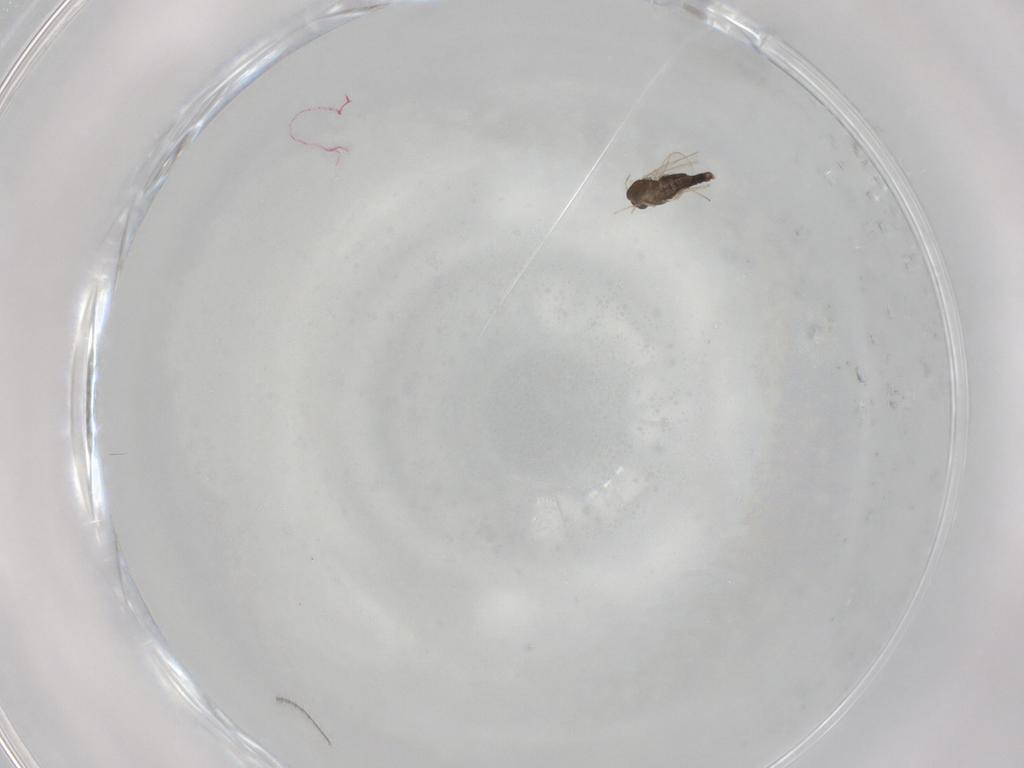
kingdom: Animalia
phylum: Arthropoda
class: Insecta
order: Diptera
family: Chironomidae
